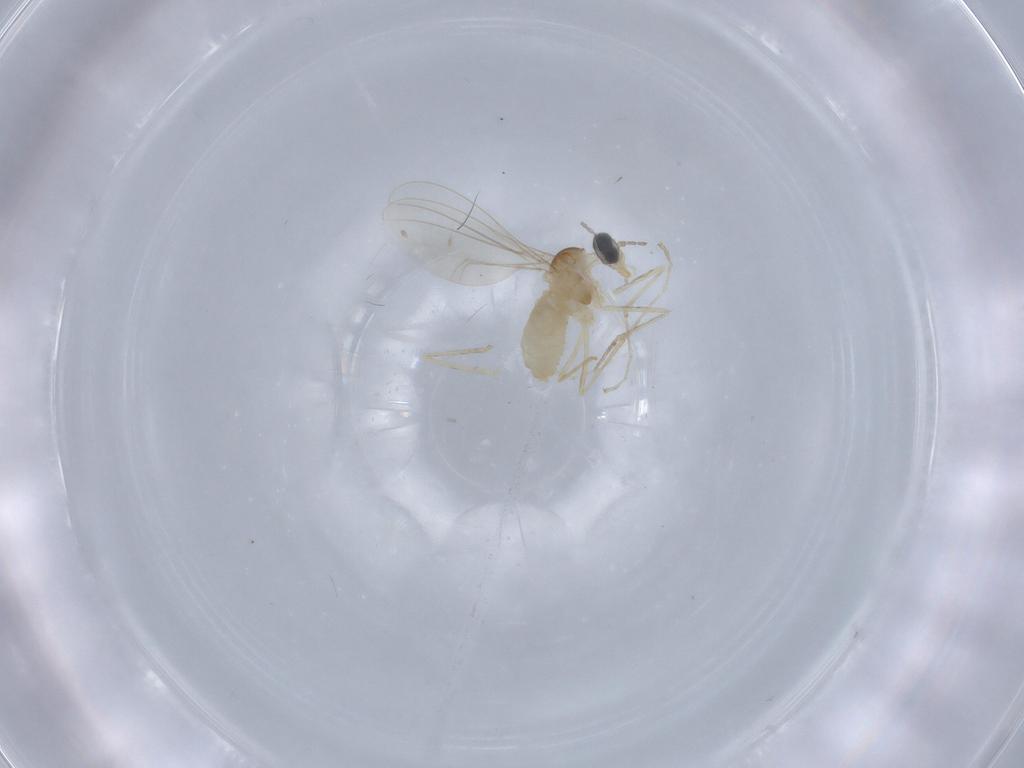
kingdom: Animalia
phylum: Arthropoda
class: Insecta
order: Diptera
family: Cecidomyiidae
